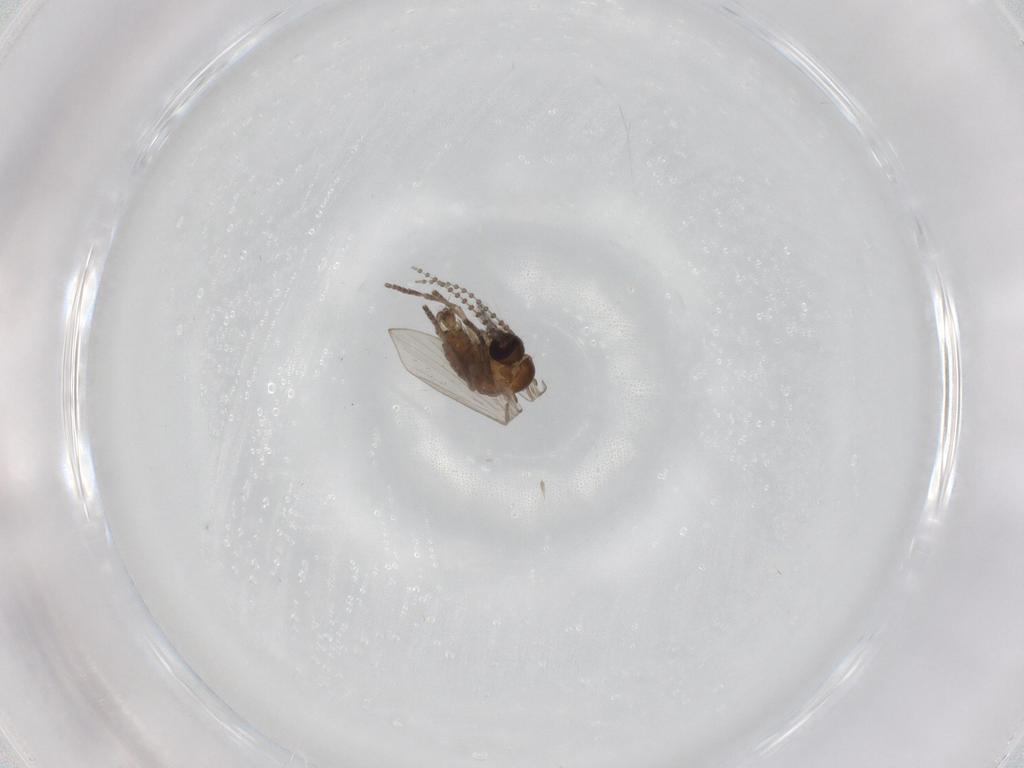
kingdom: Animalia
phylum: Arthropoda
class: Insecta
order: Diptera
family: Psychodidae
